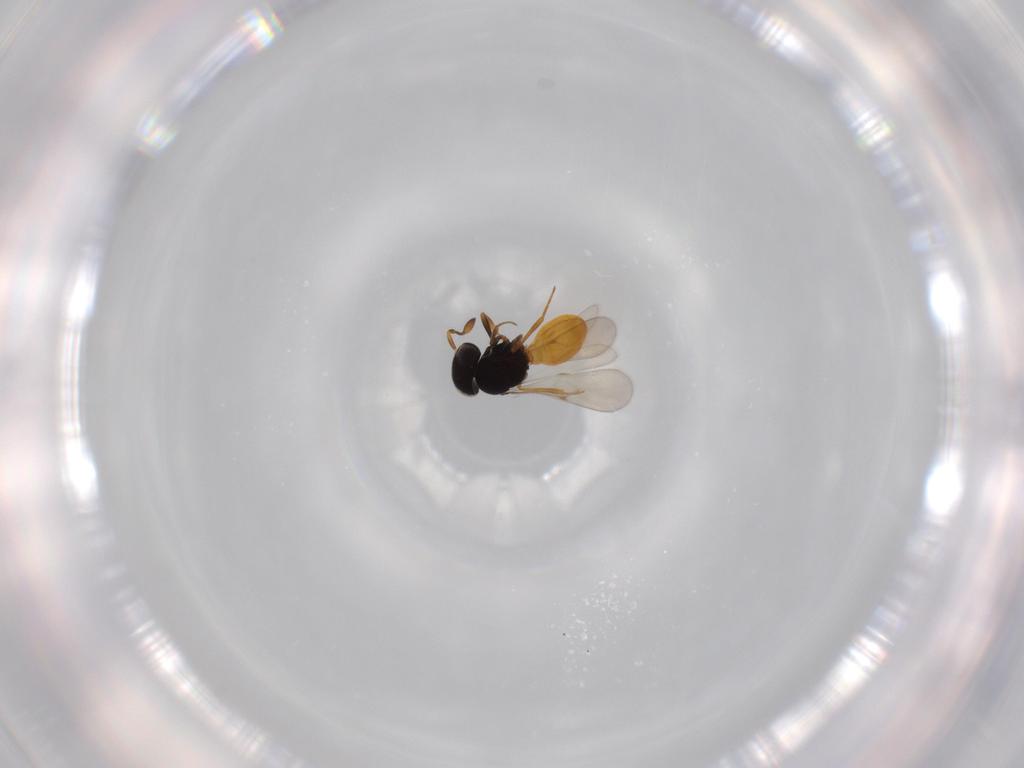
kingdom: Animalia
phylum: Arthropoda
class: Insecta
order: Hymenoptera
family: Scelionidae
